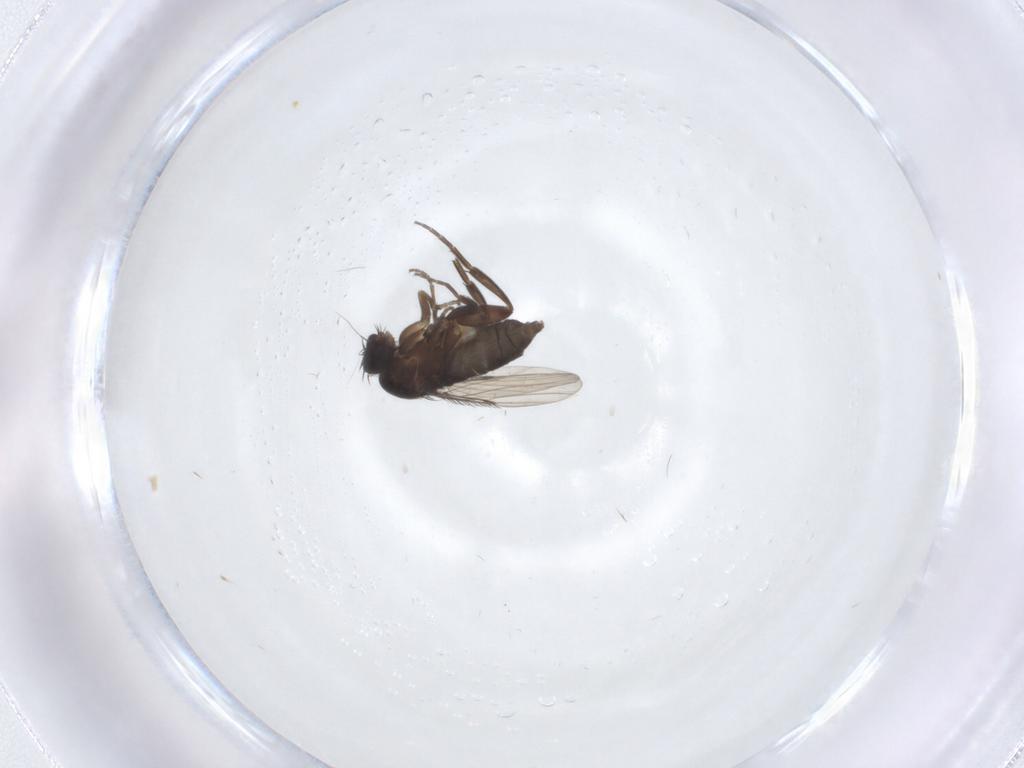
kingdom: Animalia
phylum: Arthropoda
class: Insecta
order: Diptera
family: Phoridae
